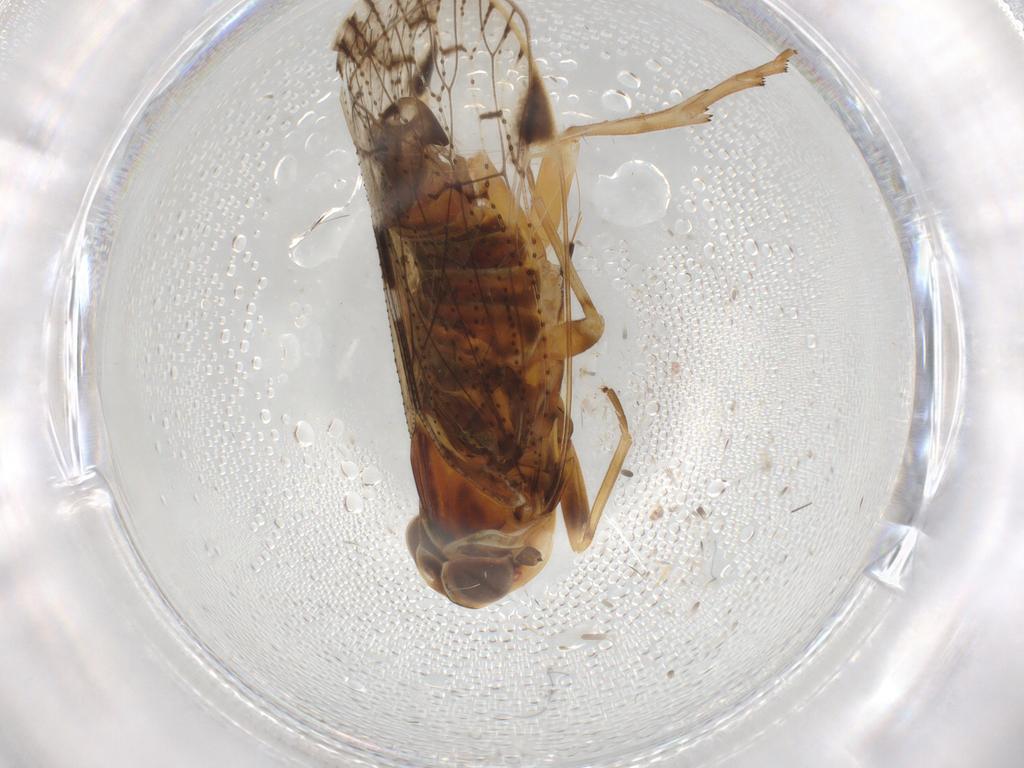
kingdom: Animalia
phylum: Arthropoda
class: Insecta
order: Hemiptera
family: Cixiidae
